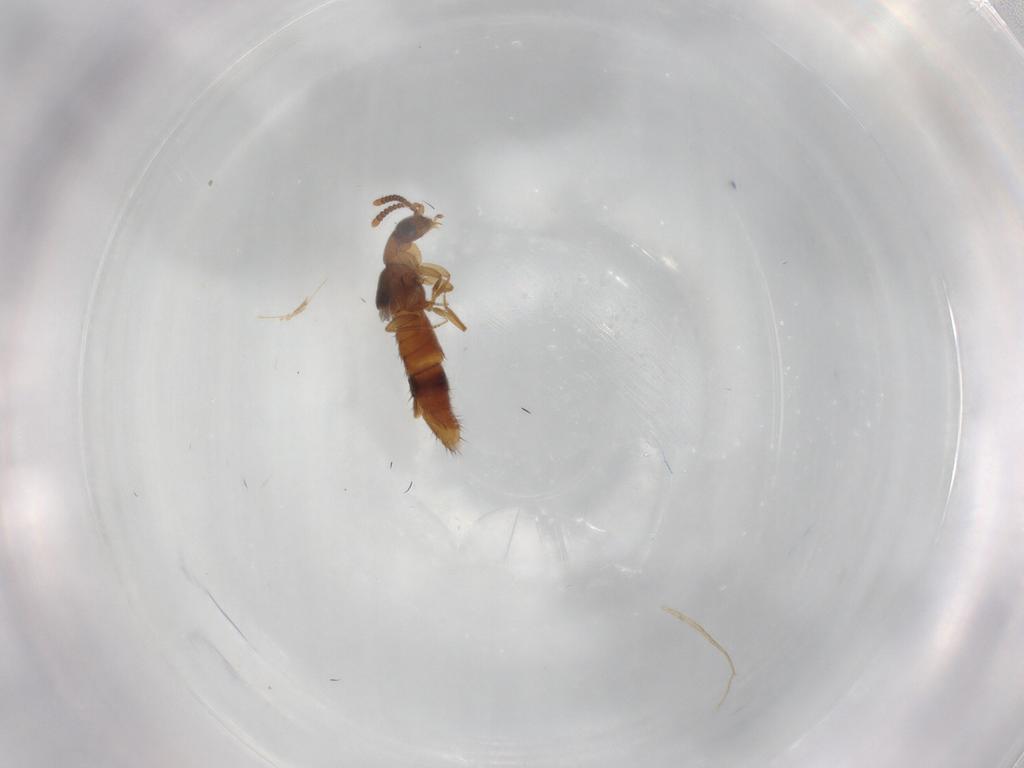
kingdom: Animalia
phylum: Arthropoda
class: Insecta
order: Coleoptera
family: Staphylinidae
